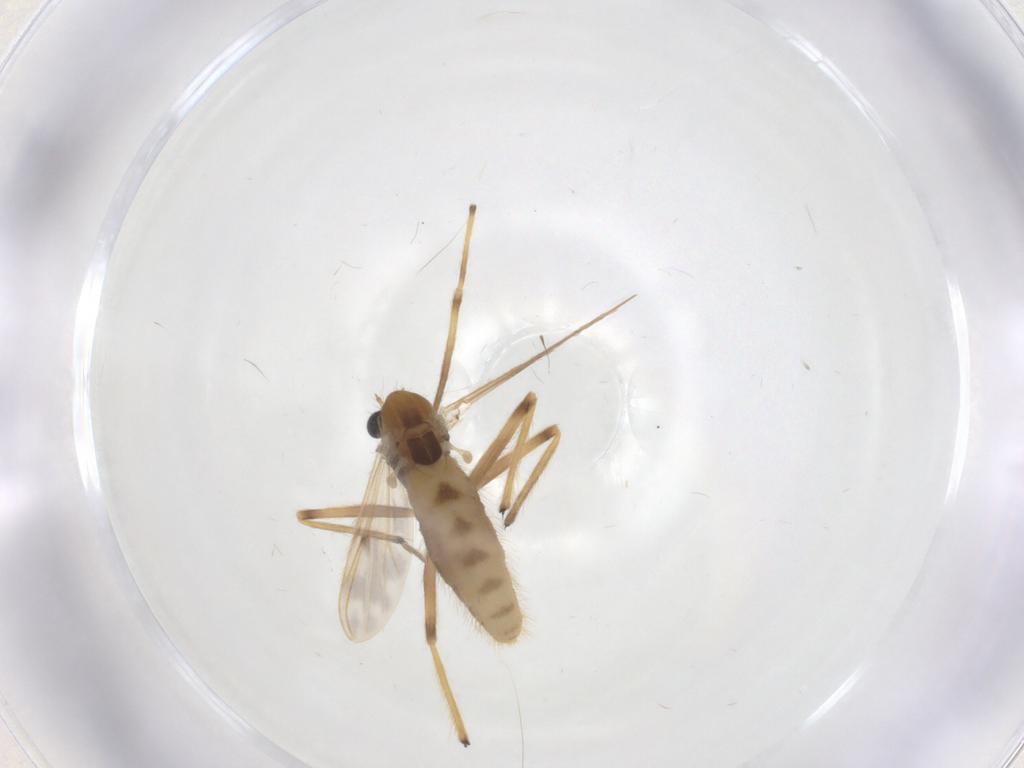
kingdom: Animalia
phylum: Arthropoda
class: Insecta
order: Diptera
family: Chironomidae
